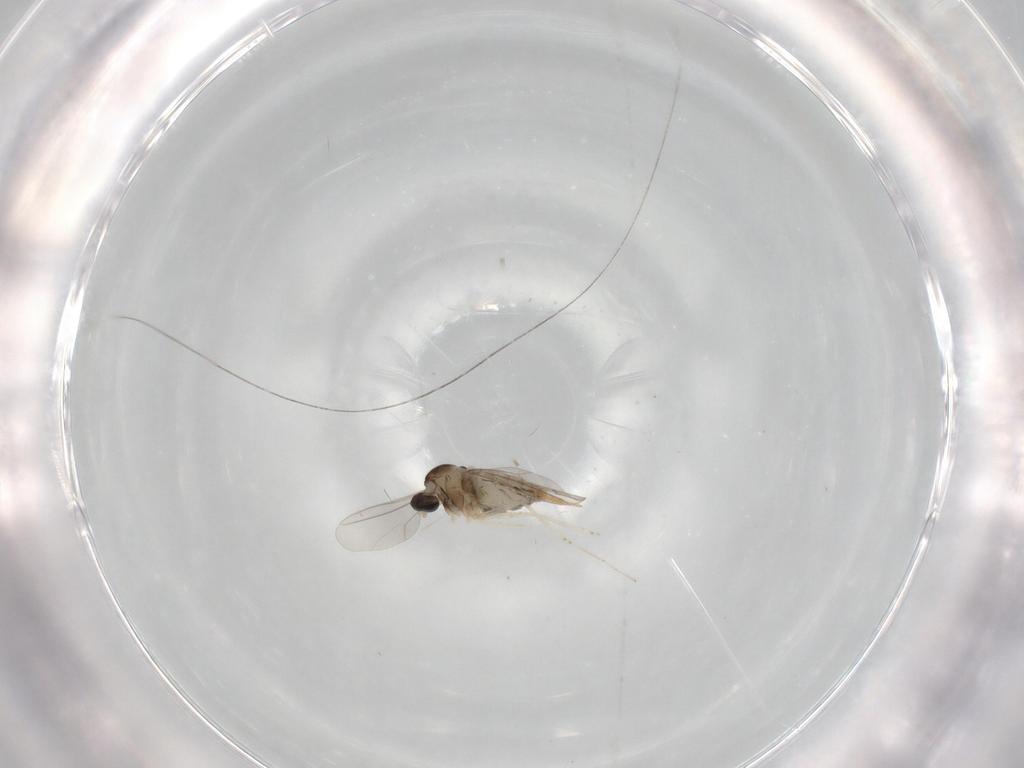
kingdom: Animalia
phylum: Arthropoda
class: Insecta
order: Diptera
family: Cecidomyiidae
